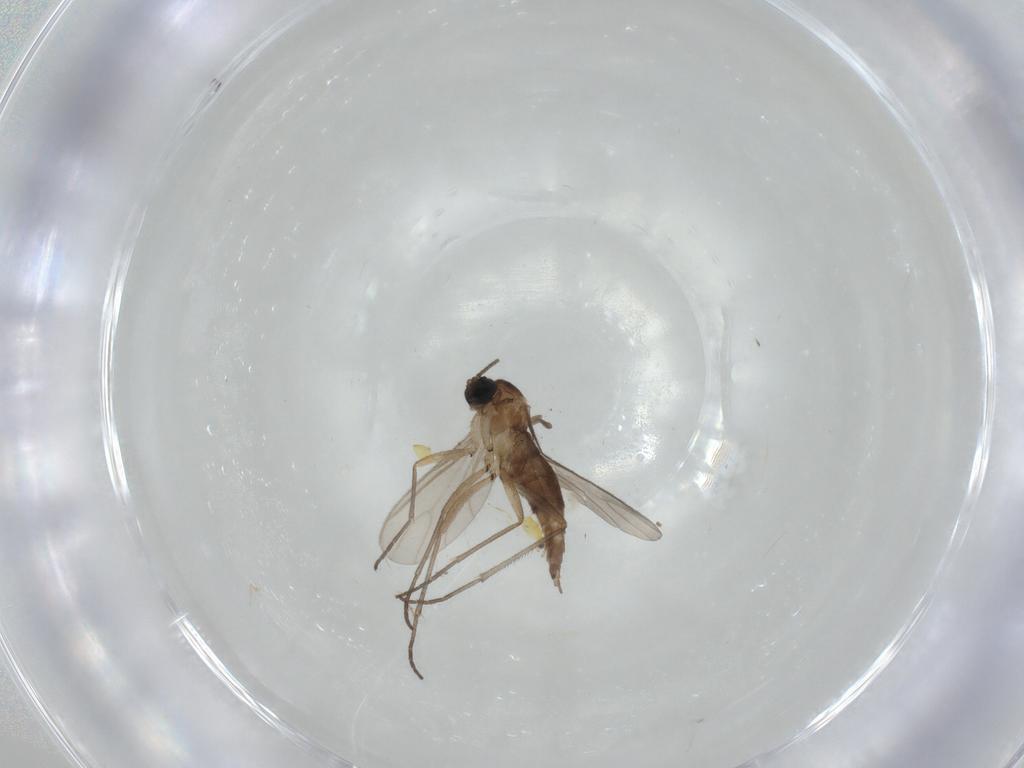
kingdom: Animalia
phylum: Arthropoda
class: Insecta
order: Diptera
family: Sciaridae
